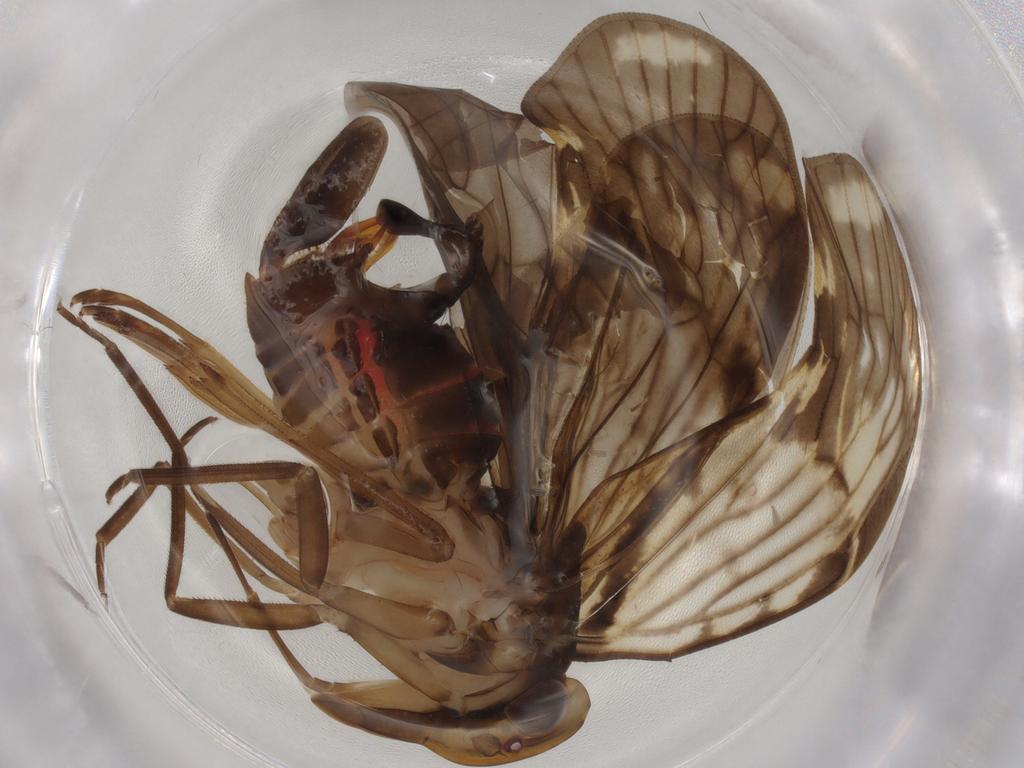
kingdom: Animalia
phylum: Arthropoda
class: Insecta
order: Hemiptera
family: Cixiidae
